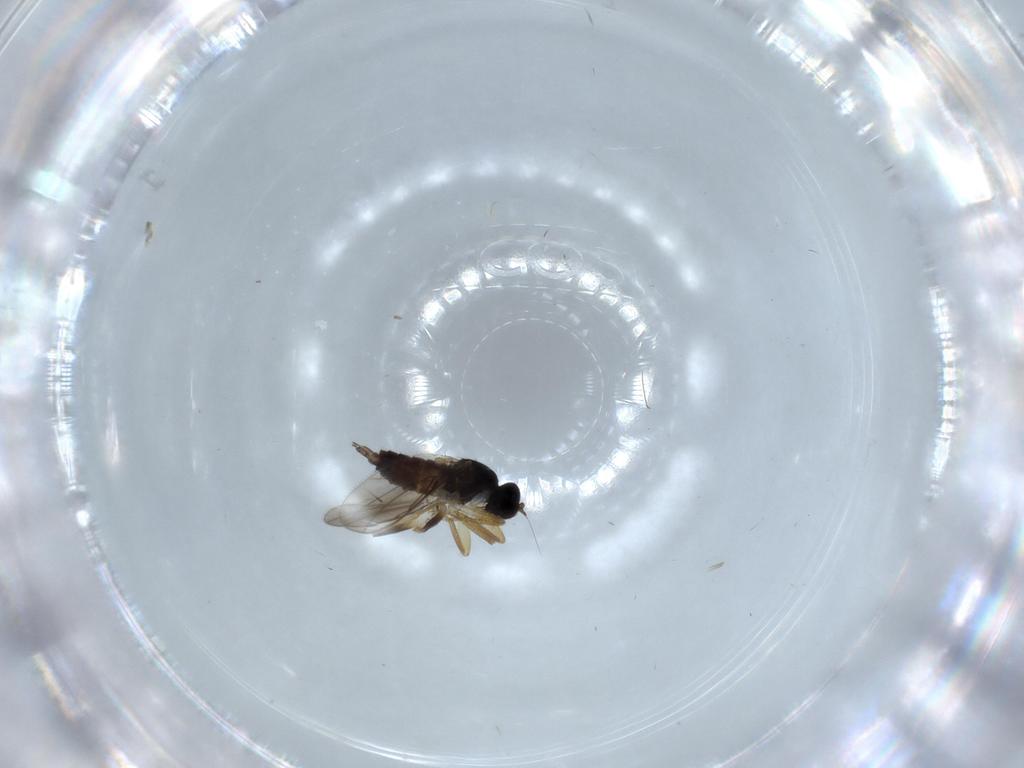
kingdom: Animalia
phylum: Arthropoda
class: Insecta
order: Diptera
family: Hybotidae
